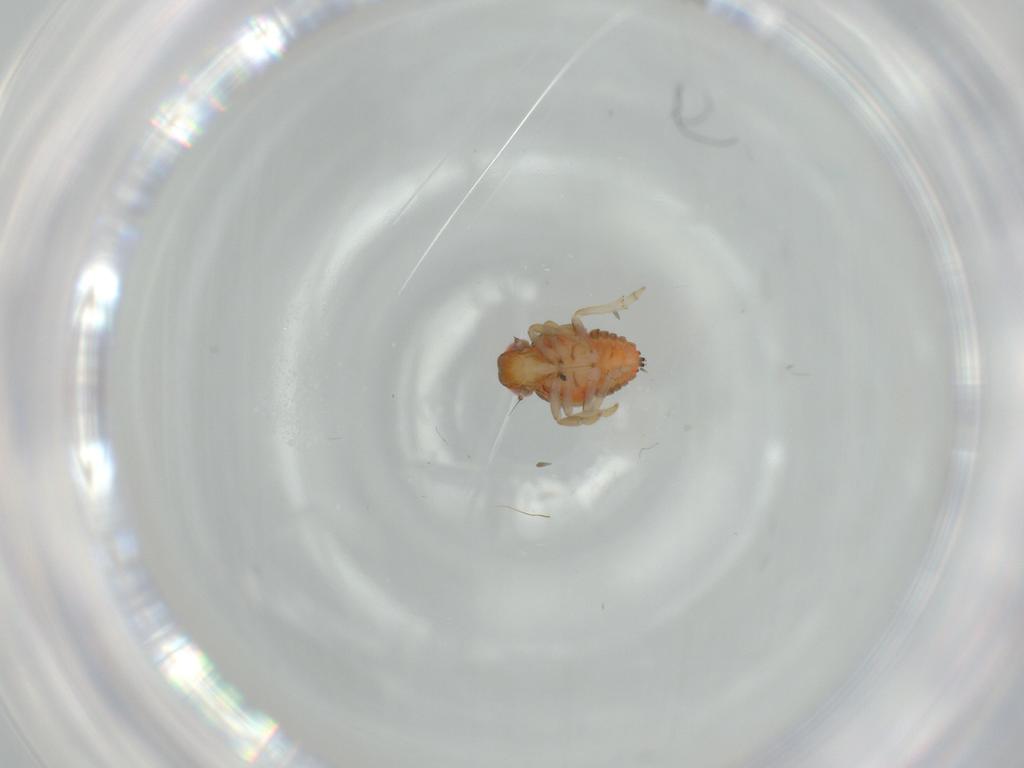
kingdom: Animalia
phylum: Arthropoda
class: Insecta
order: Hemiptera
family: Issidae
